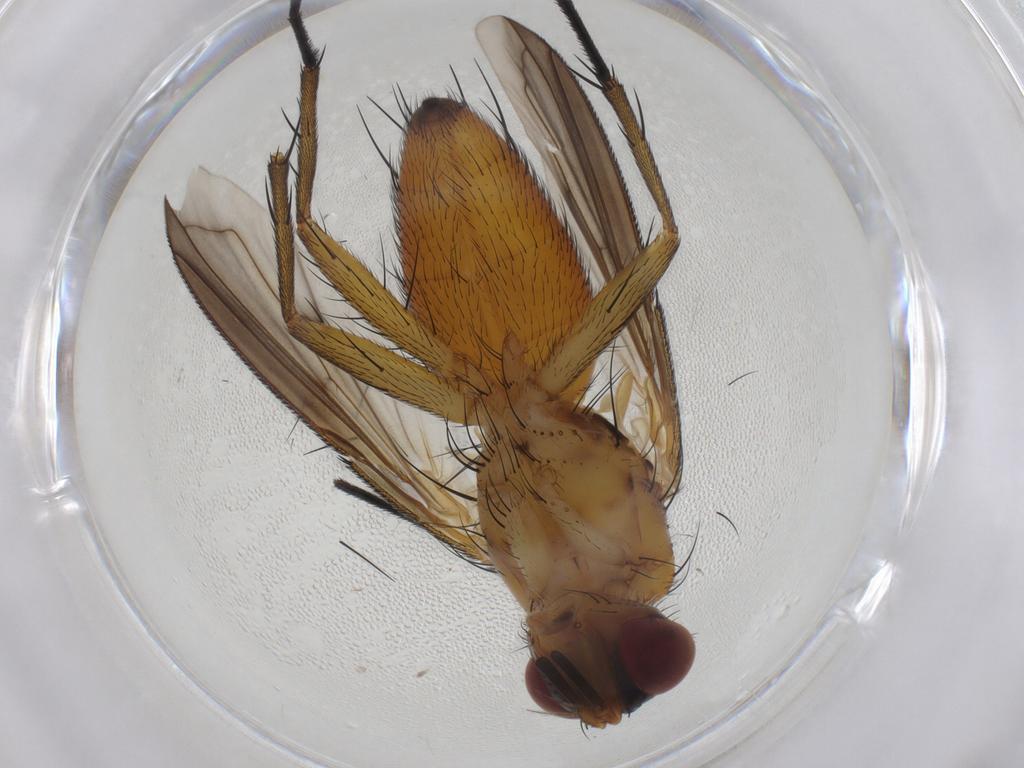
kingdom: Animalia
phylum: Arthropoda
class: Insecta
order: Diptera
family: Tachinidae
